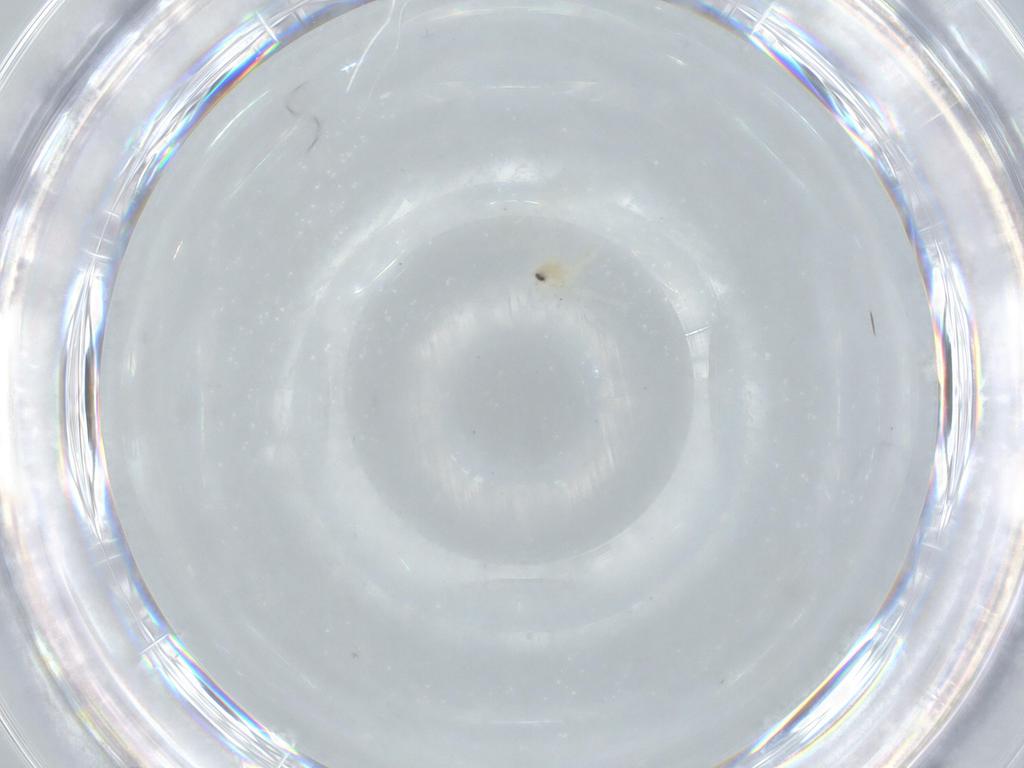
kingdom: Animalia
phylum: Arthropoda
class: Insecta
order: Hemiptera
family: Aleyrodidae
